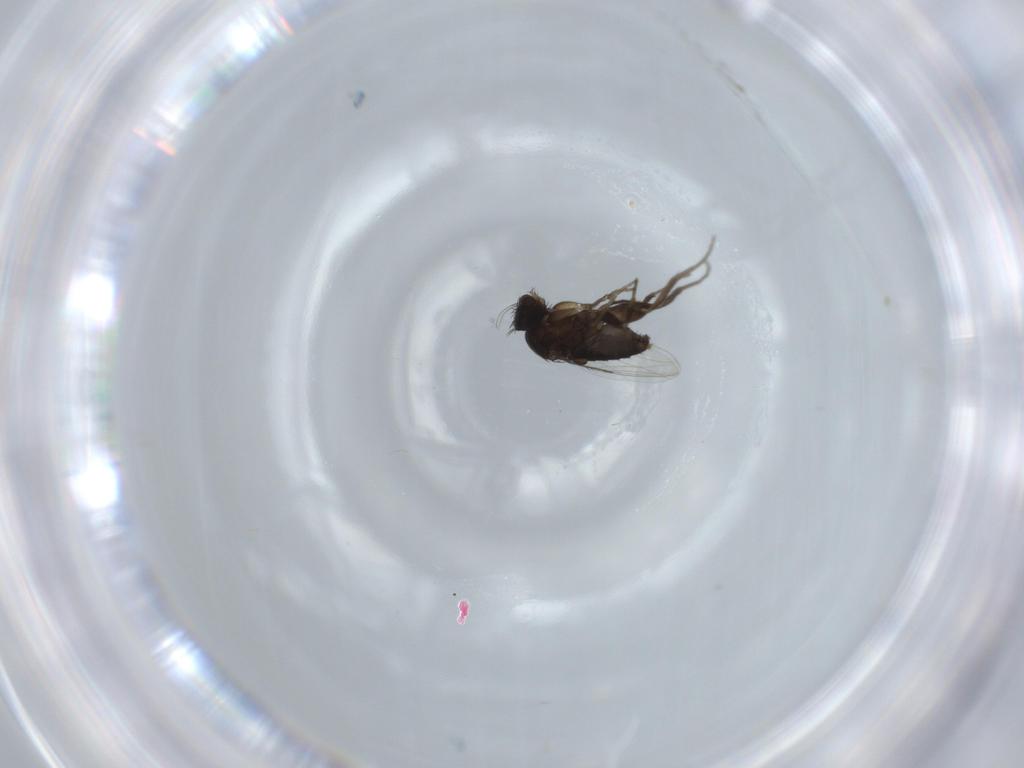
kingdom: Animalia
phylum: Arthropoda
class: Insecta
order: Diptera
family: Phoridae
